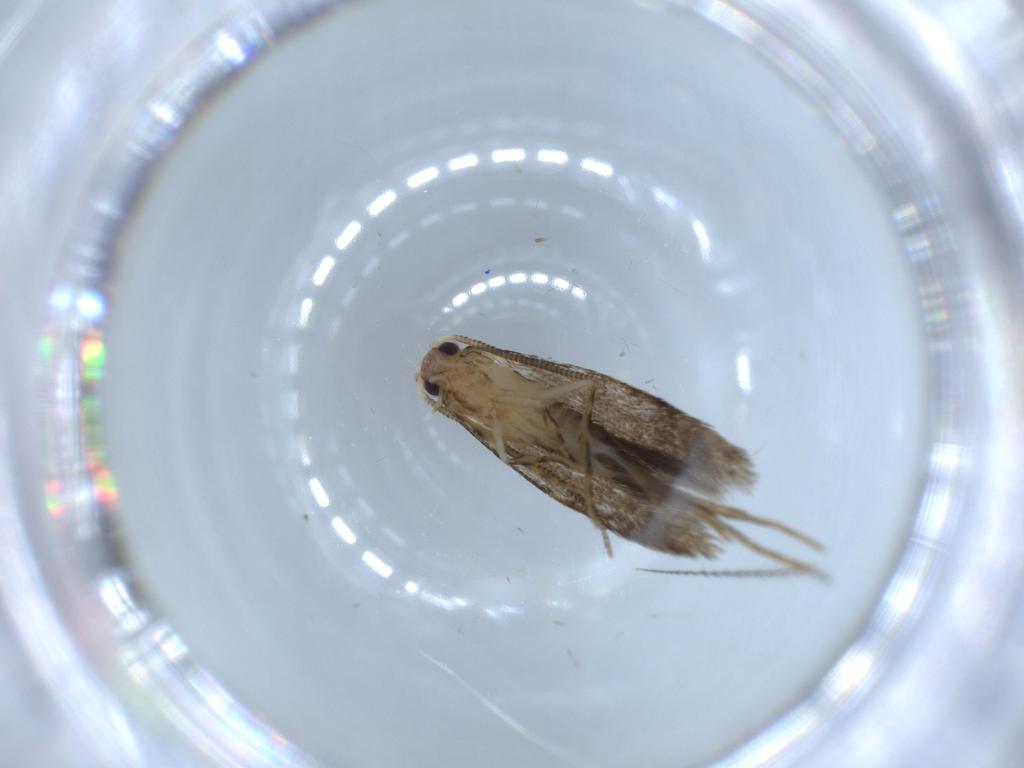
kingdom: Animalia
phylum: Arthropoda
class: Insecta
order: Lepidoptera
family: Tineidae
